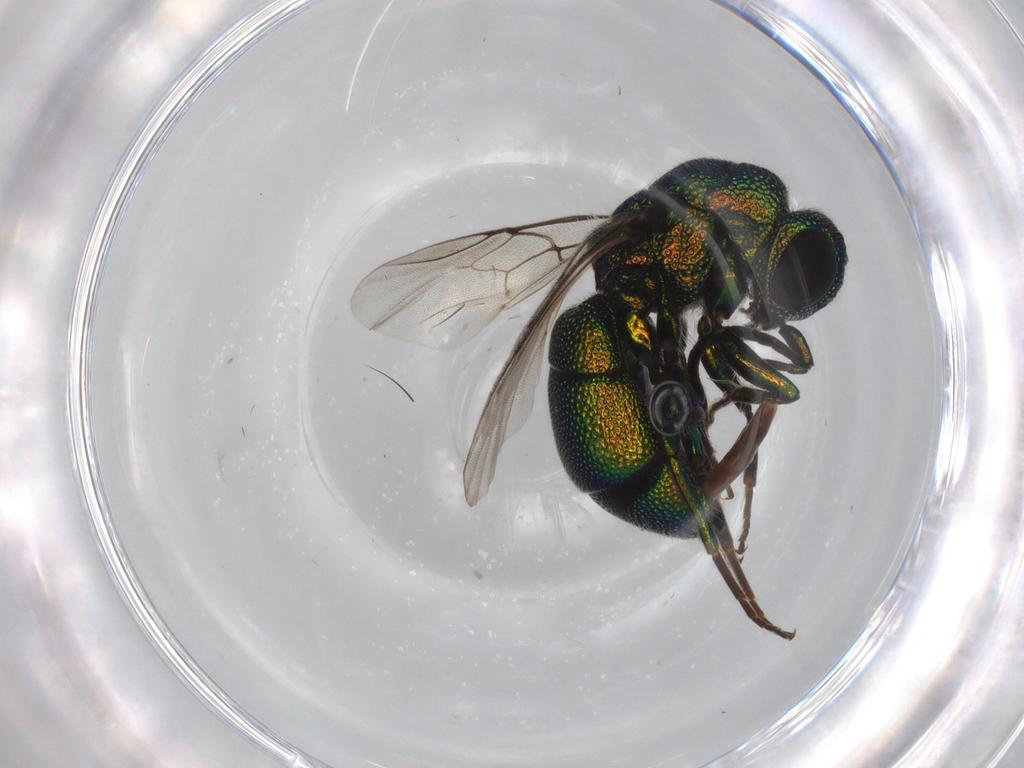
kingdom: Animalia
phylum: Arthropoda
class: Insecta
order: Hymenoptera
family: Chrysididae
